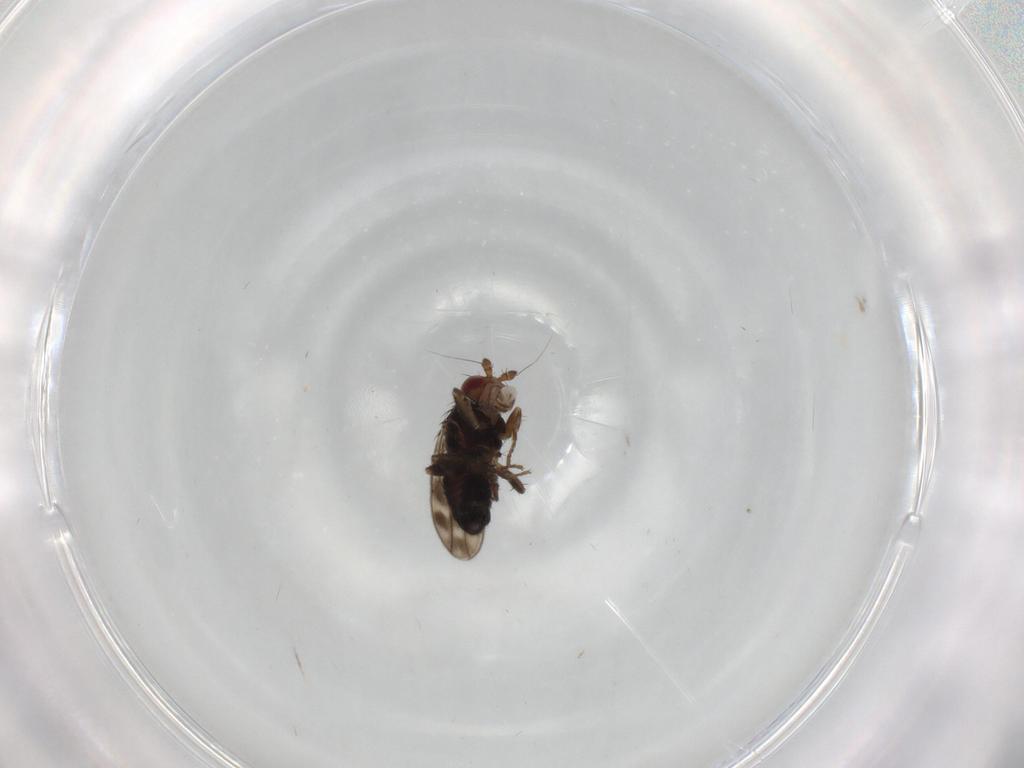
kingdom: Animalia
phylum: Arthropoda
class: Insecta
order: Diptera
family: Sphaeroceridae
